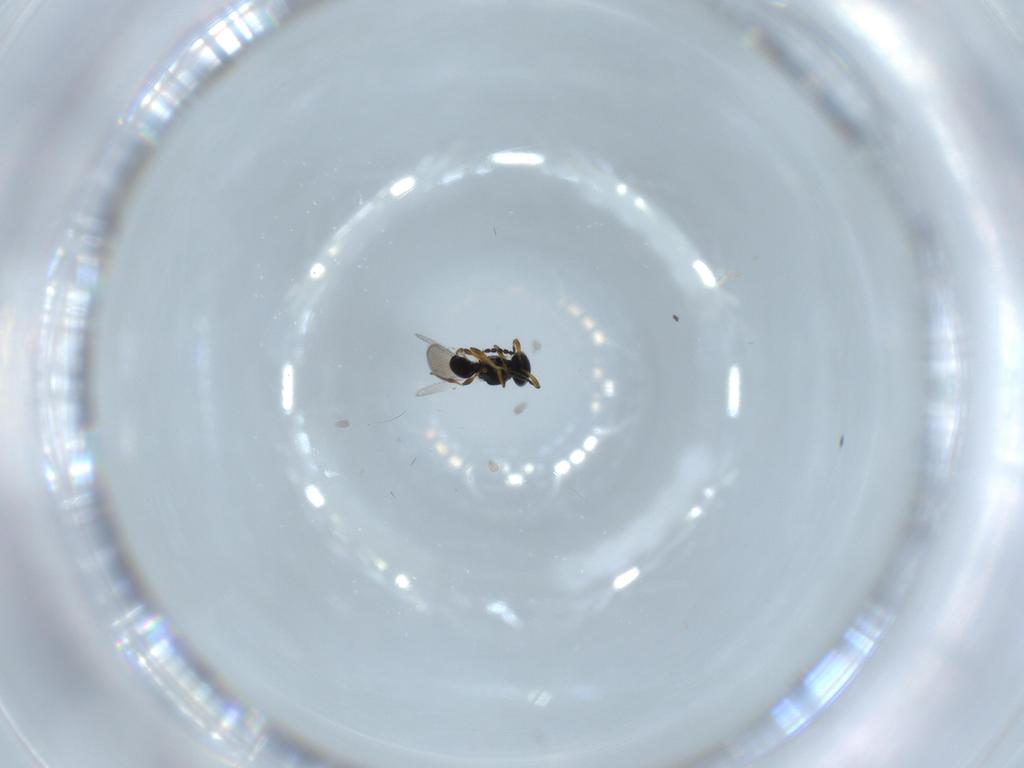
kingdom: Animalia
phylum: Arthropoda
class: Insecta
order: Hymenoptera
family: Platygastridae
